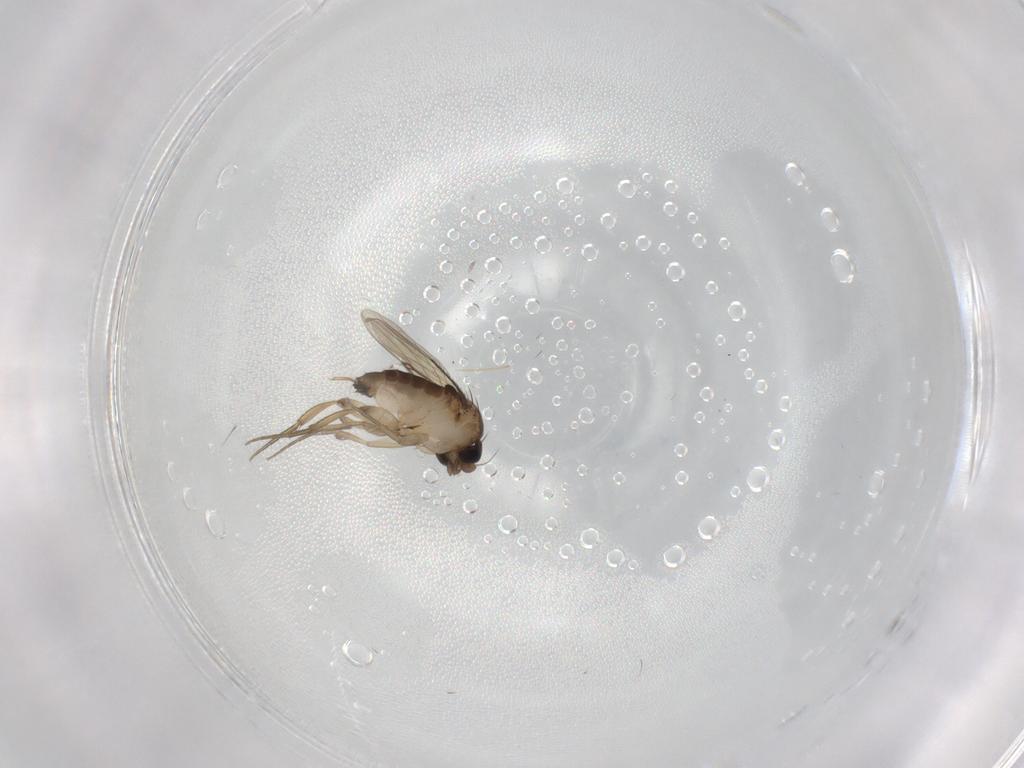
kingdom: Animalia
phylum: Arthropoda
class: Insecta
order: Diptera
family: Phoridae
